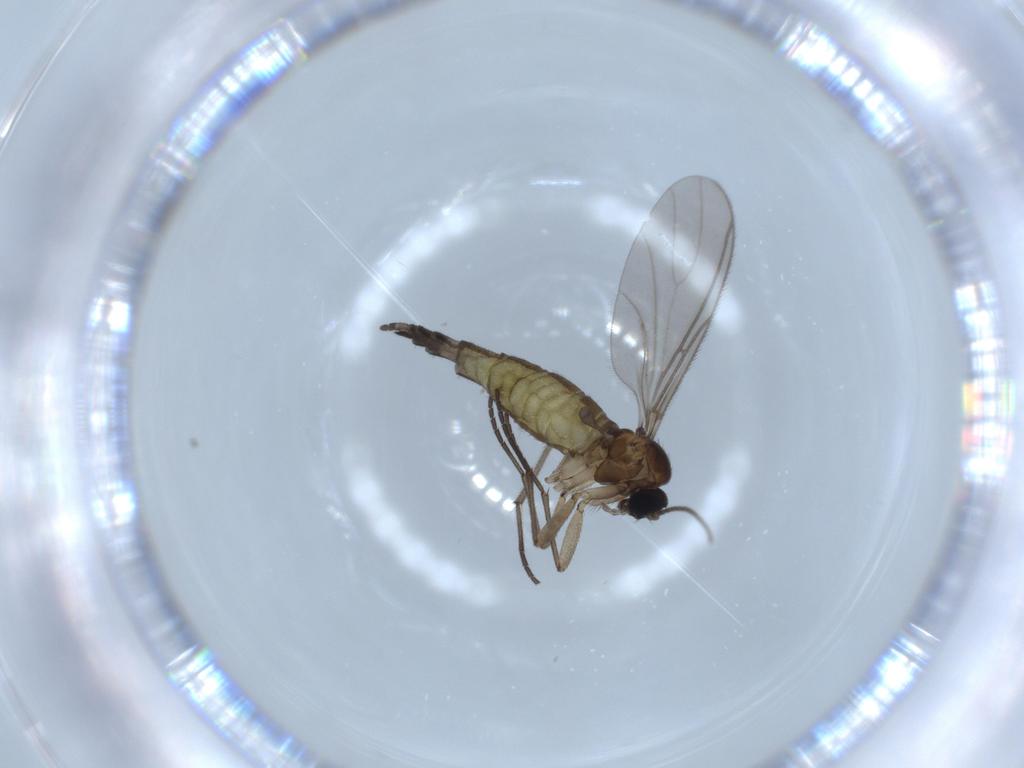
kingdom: Animalia
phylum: Arthropoda
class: Insecta
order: Diptera
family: Sciaridae
